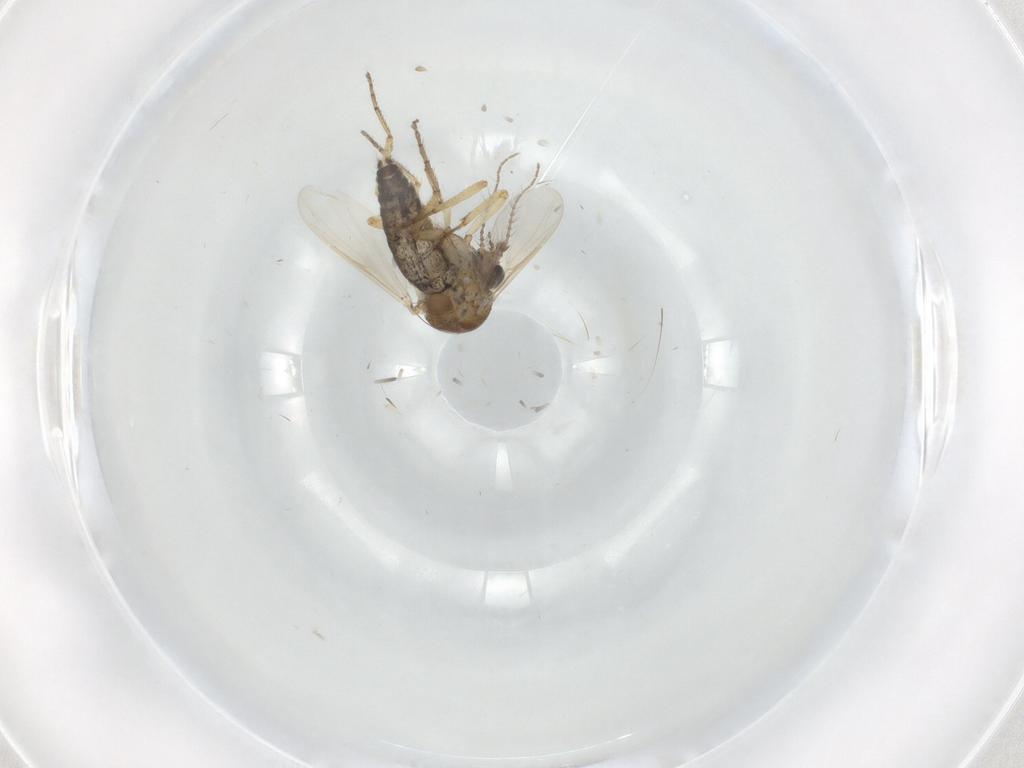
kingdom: Animalia
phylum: Arthropoda
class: Insecta
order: Diptera
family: Ceratopogonidae
